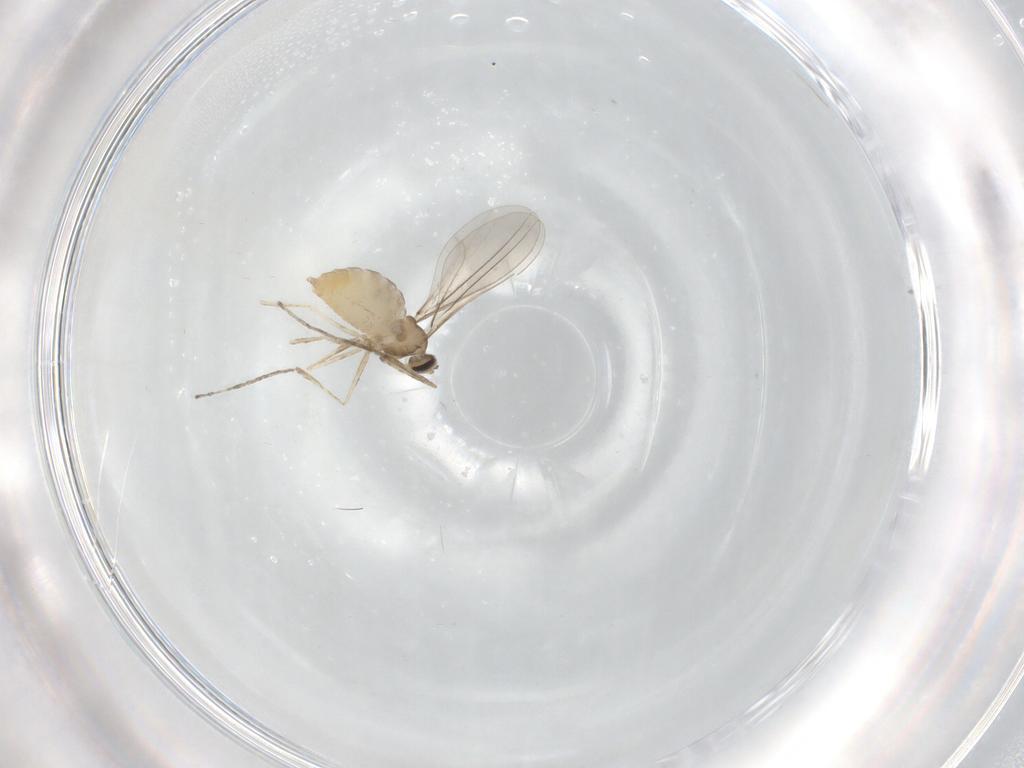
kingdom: Animalia
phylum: Arthropoda
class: Insecta
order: Diptera
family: Cecidomyiidae
